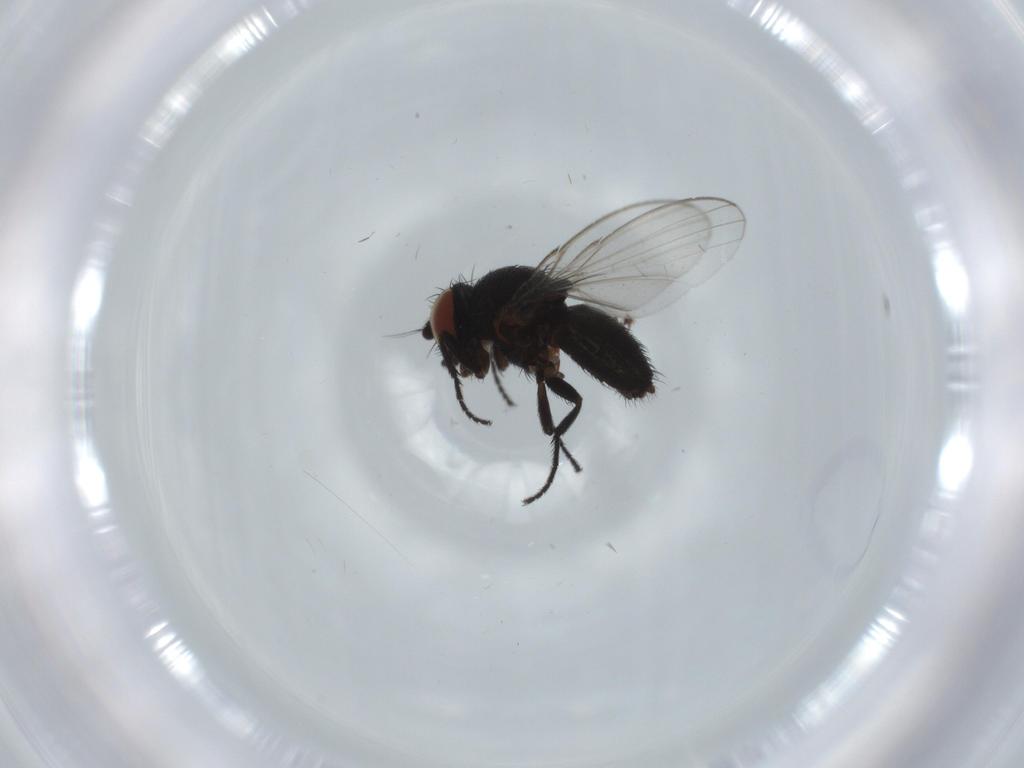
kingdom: Animalia
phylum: Arthropoda
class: Insecta
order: Diptera
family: Milichiidae
